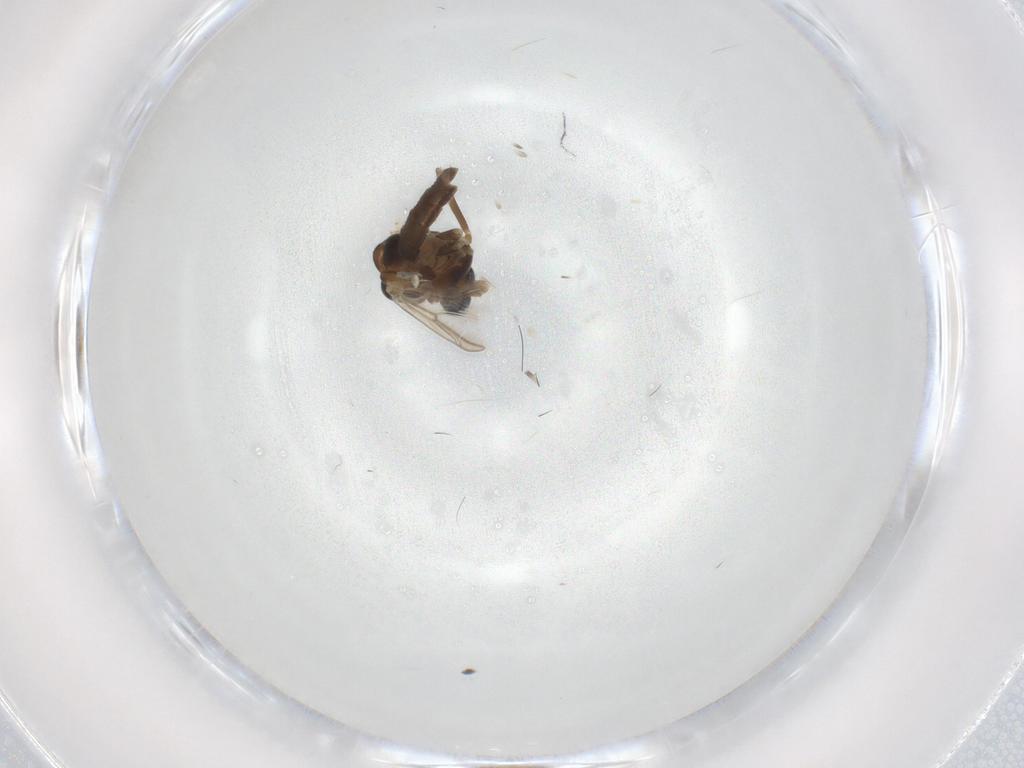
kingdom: Animalia
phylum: Arthropoda
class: Insecta
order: Diptera
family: Chironomidae
